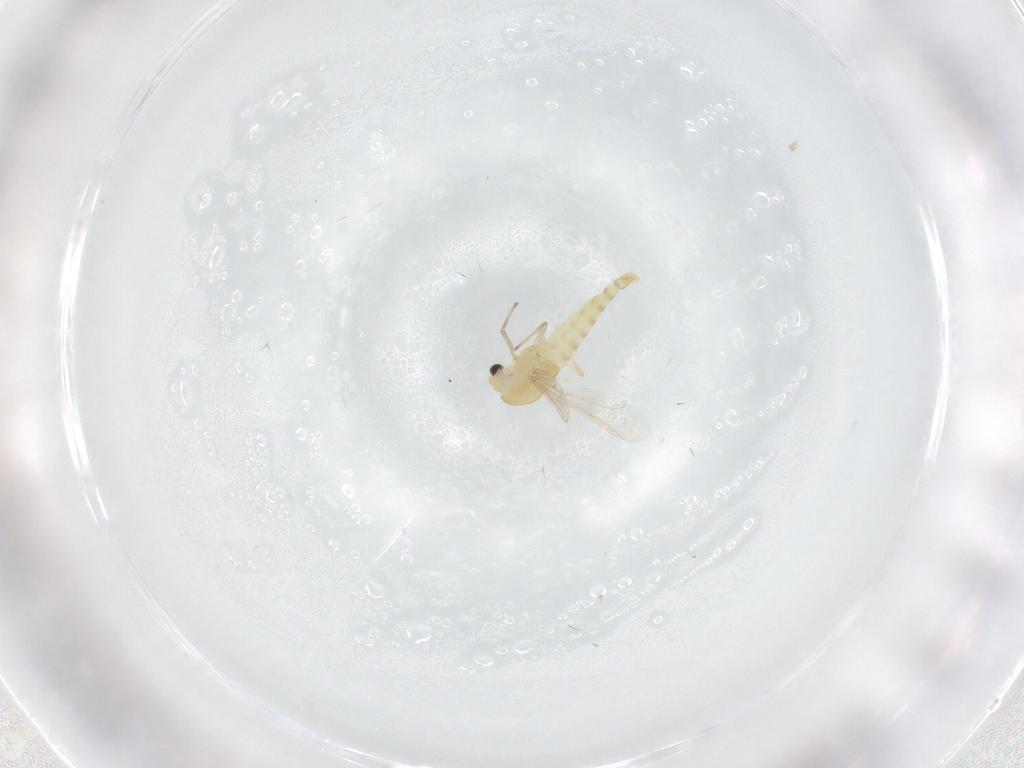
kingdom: Animalia
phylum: Arthropoda
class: Insecta
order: Diptera
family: Chironomidae
